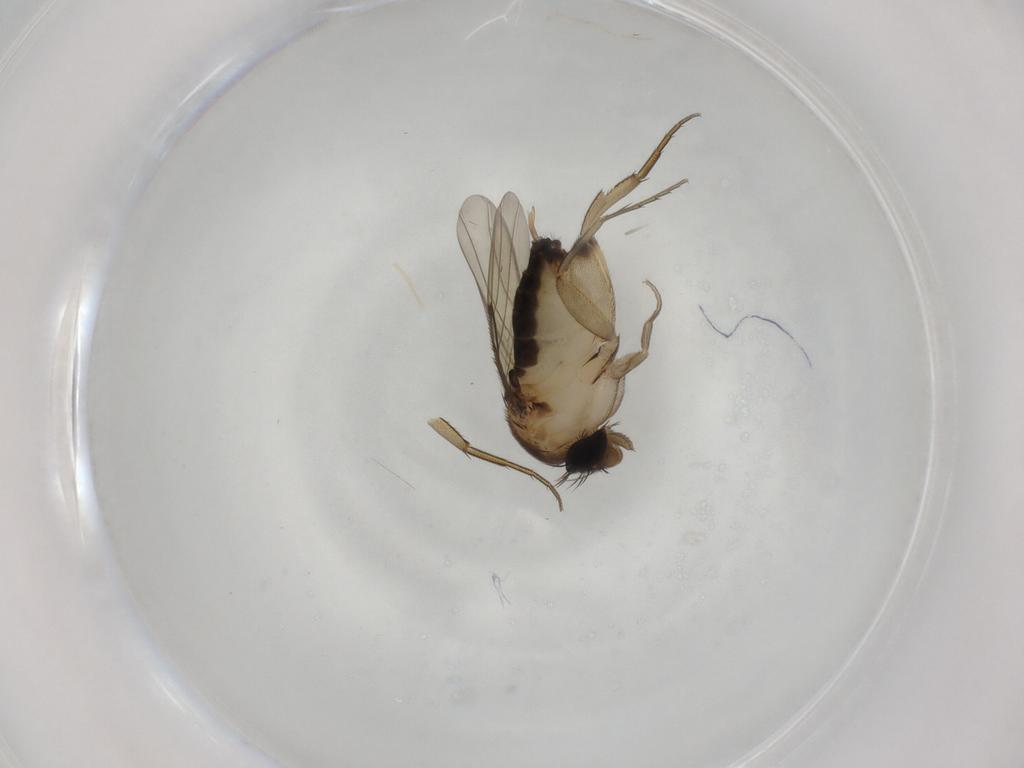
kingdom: Animalia
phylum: Arthropoda
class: Insecta
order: Diptera
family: Phoridae
